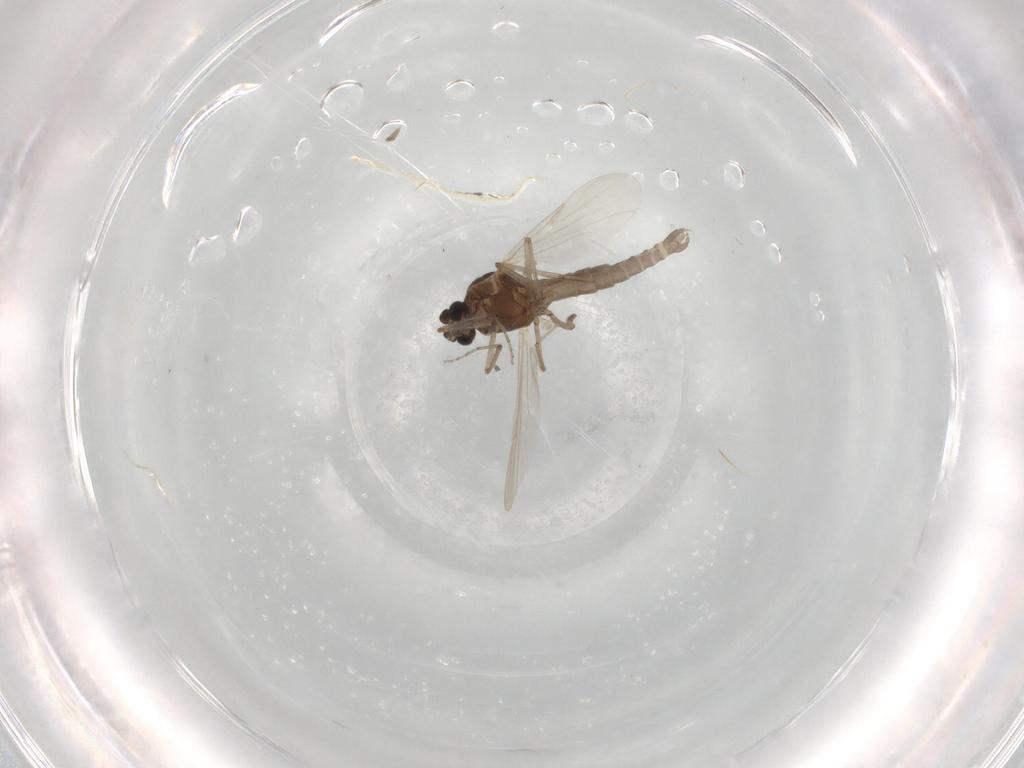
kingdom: Animalia
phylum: Arthropoda
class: Insecta
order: Diptera
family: Ceratopogonidae
